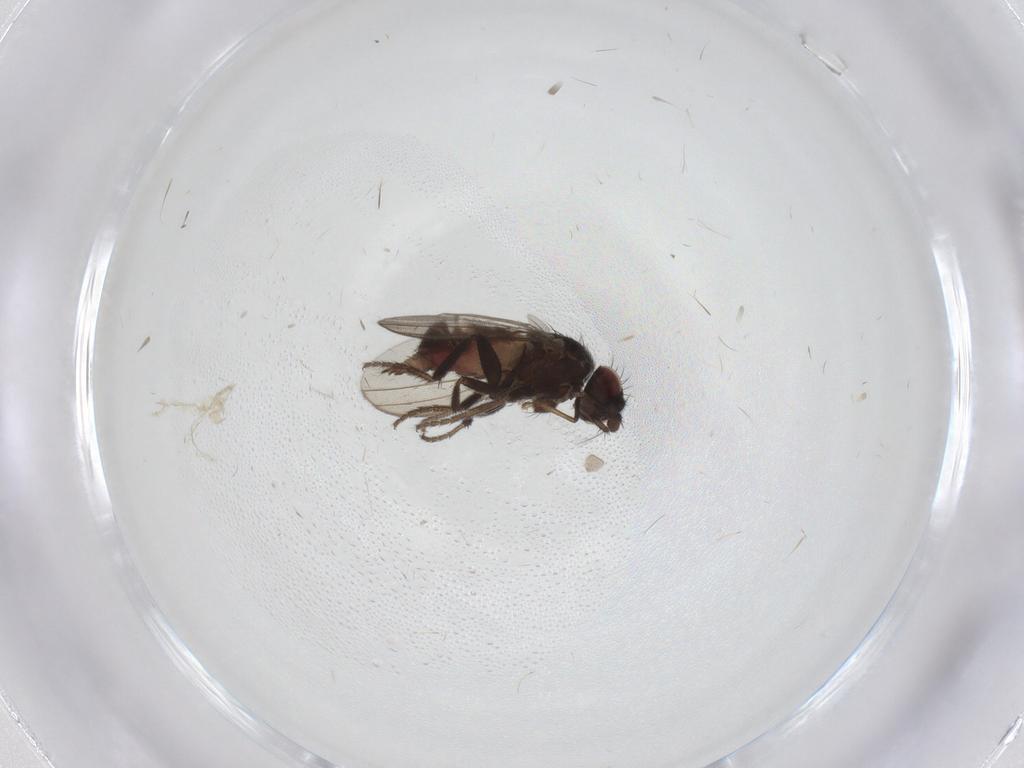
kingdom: Animalia
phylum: Arthropoda
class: Insecta
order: Diptera
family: Milichiidae
